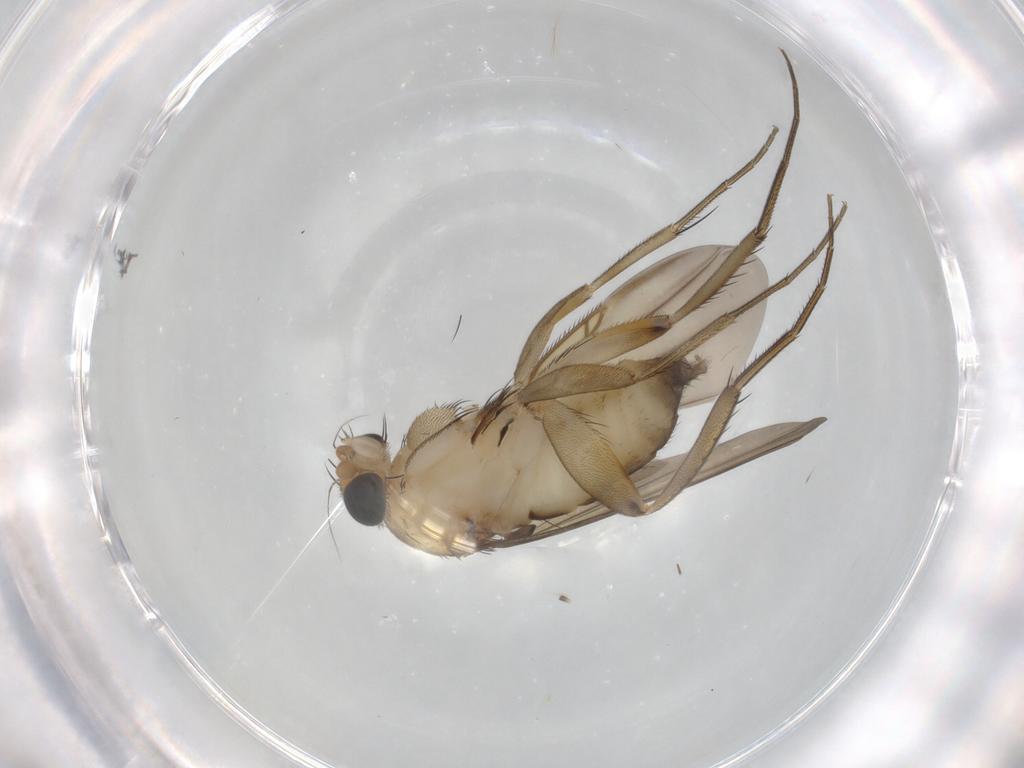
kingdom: Animalia
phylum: Arthropoda
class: Insecta
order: Diptera
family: Phoridae
